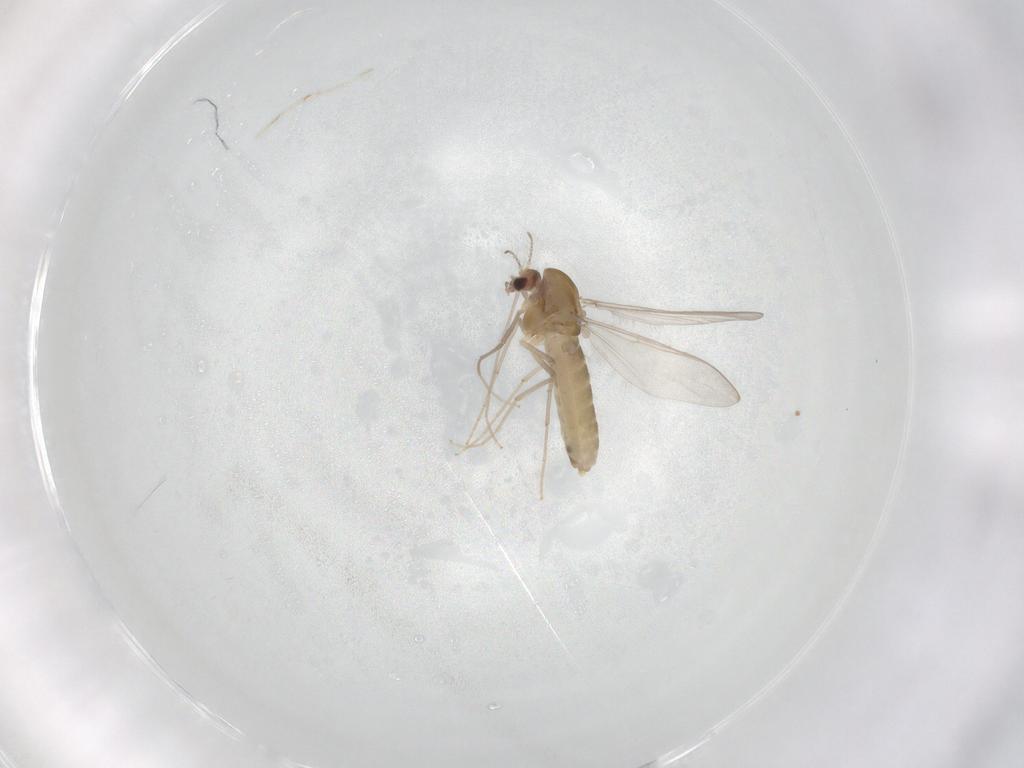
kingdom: Animalia
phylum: Arthropoda
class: Insecta
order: Diptera
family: Chironomidae
